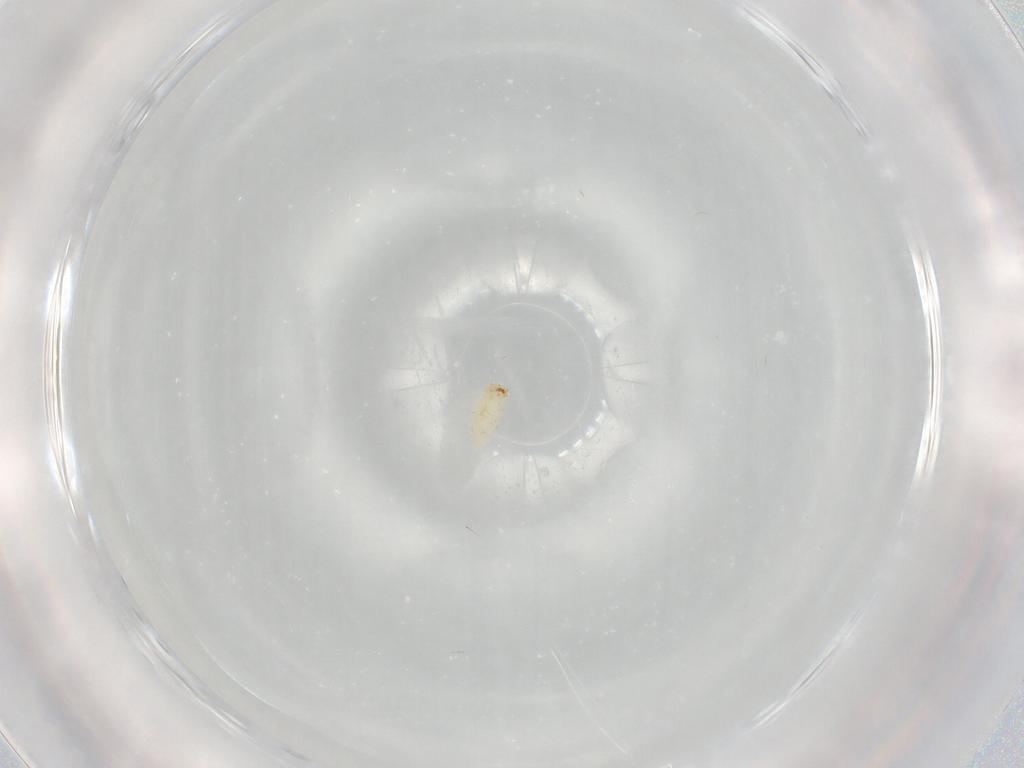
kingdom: Animalia
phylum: Arthropoda
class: Insecta
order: Coleoptera
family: Chrysomelidae
